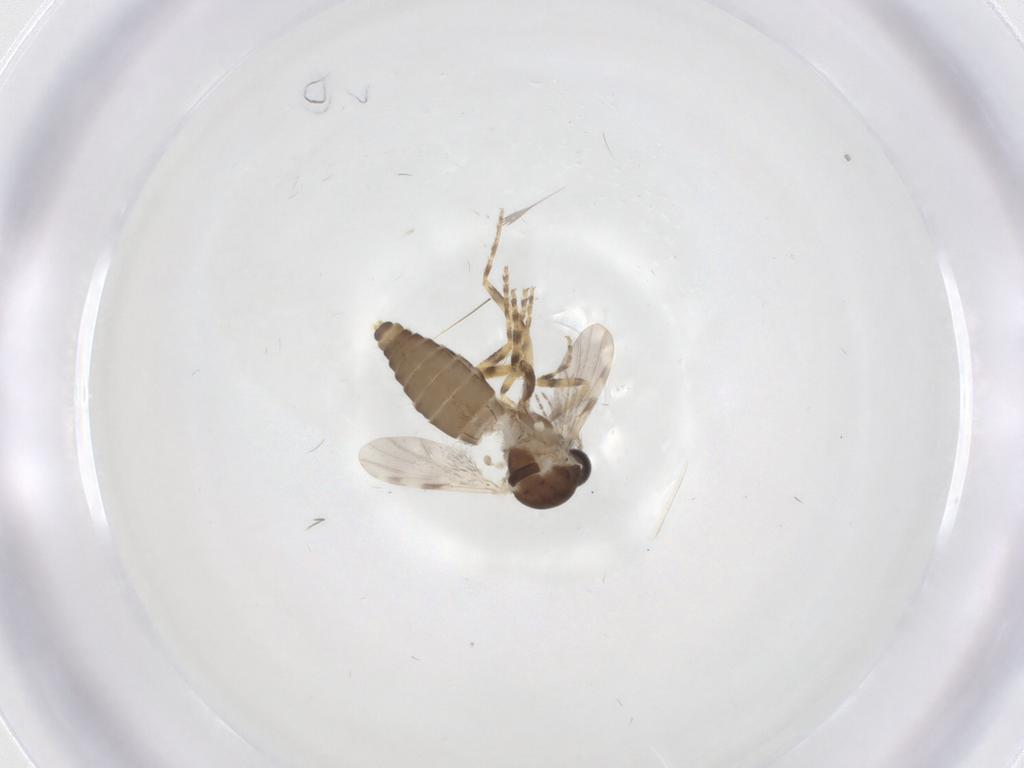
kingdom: Animalia
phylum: Arthropoda
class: Insecta
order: Diptera
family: Ceratopogonidae
